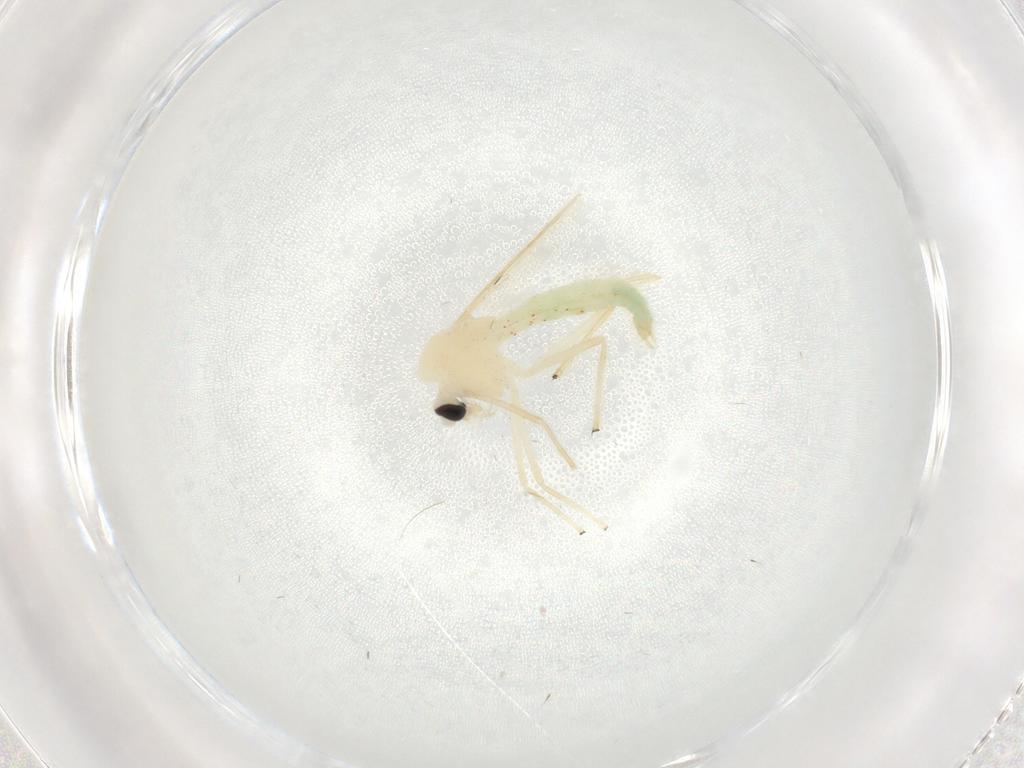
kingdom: Animalia
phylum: Arthropoda
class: Insecta
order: Diptera
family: Chironomidae
